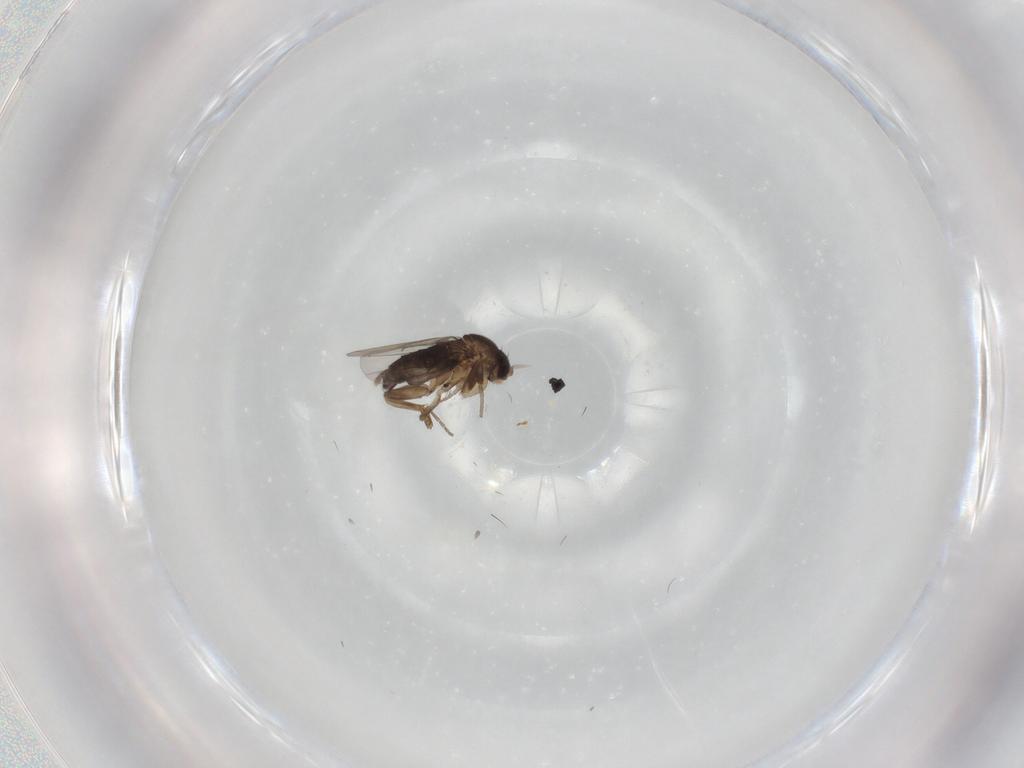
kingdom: Animalia
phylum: Arthropoda
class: Insecta
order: Diptera
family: Phoridae
